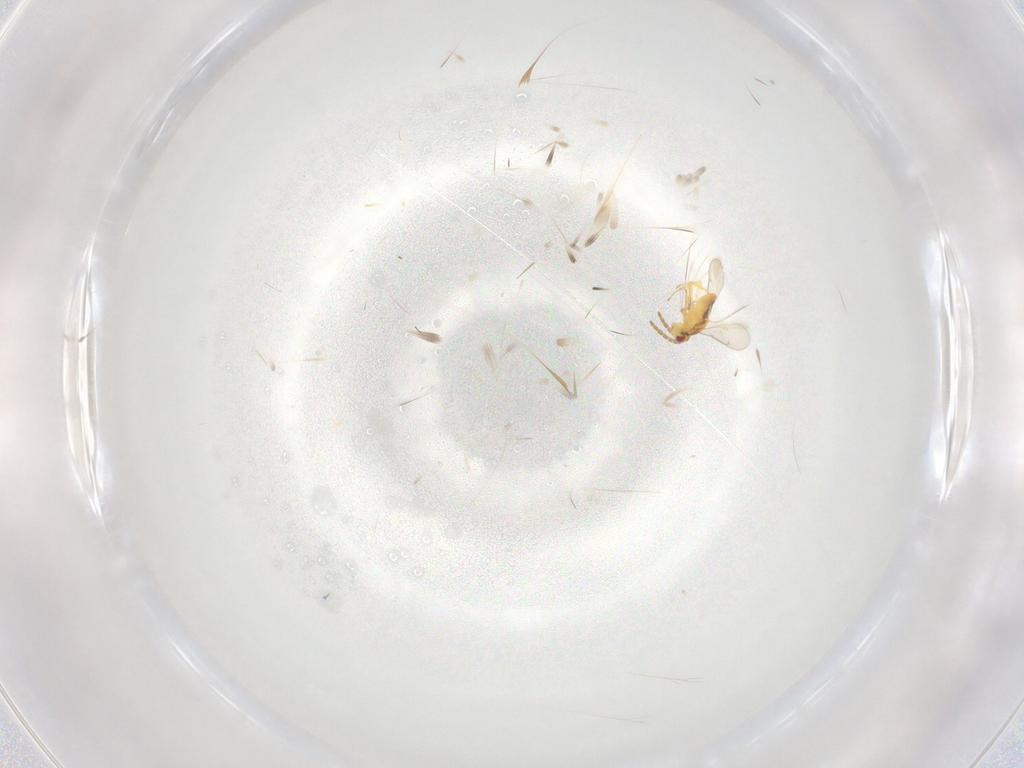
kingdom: Animalia
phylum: Arthropoda
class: Insecta
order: Hymenoptera
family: Aphelinidae
